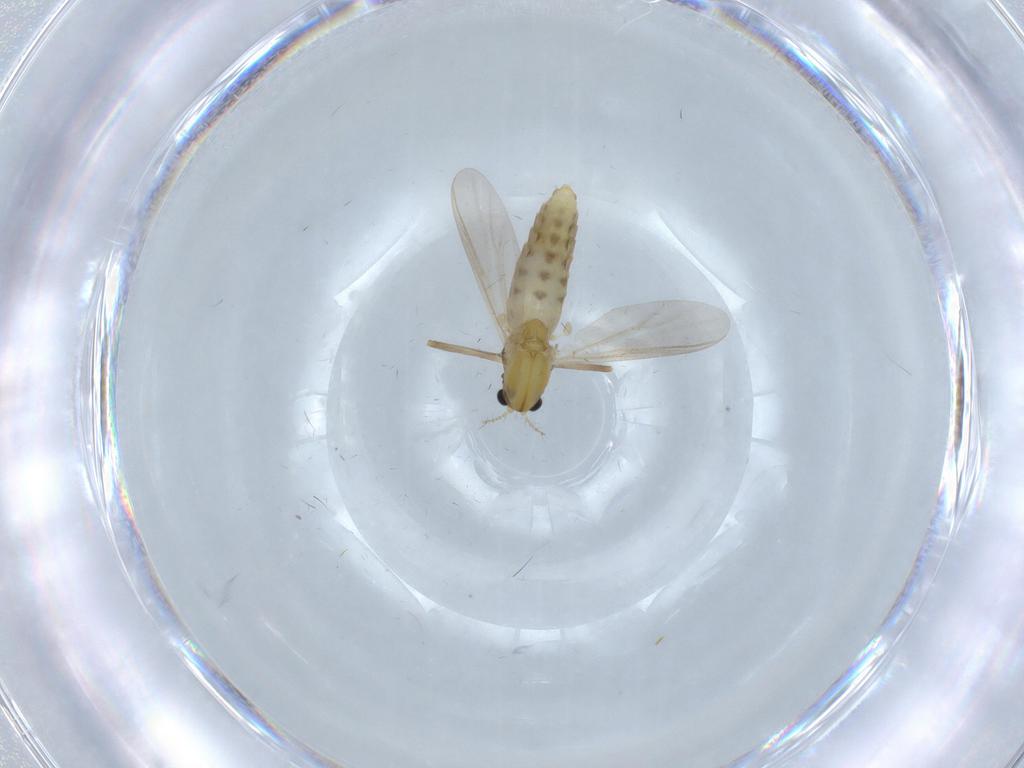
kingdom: Animalia
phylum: Arthropoda
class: Insecta
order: Diptera
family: Chironomidae
